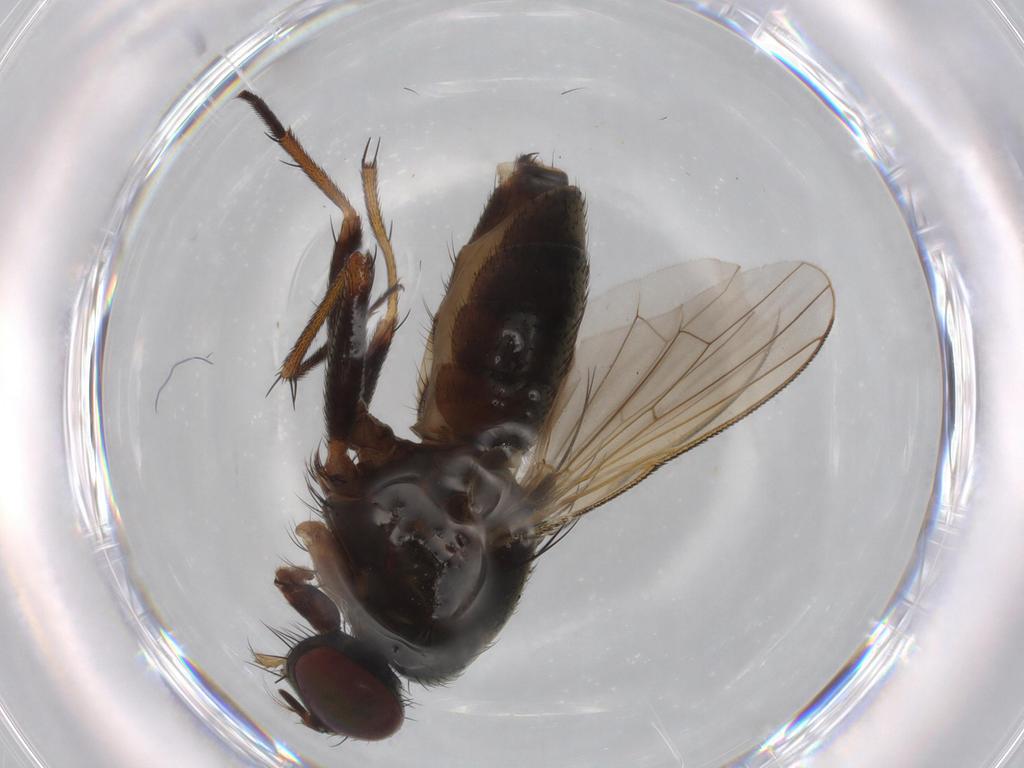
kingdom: Animalia
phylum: Arthropoda
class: Insecta
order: Diptera
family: Muscidae
